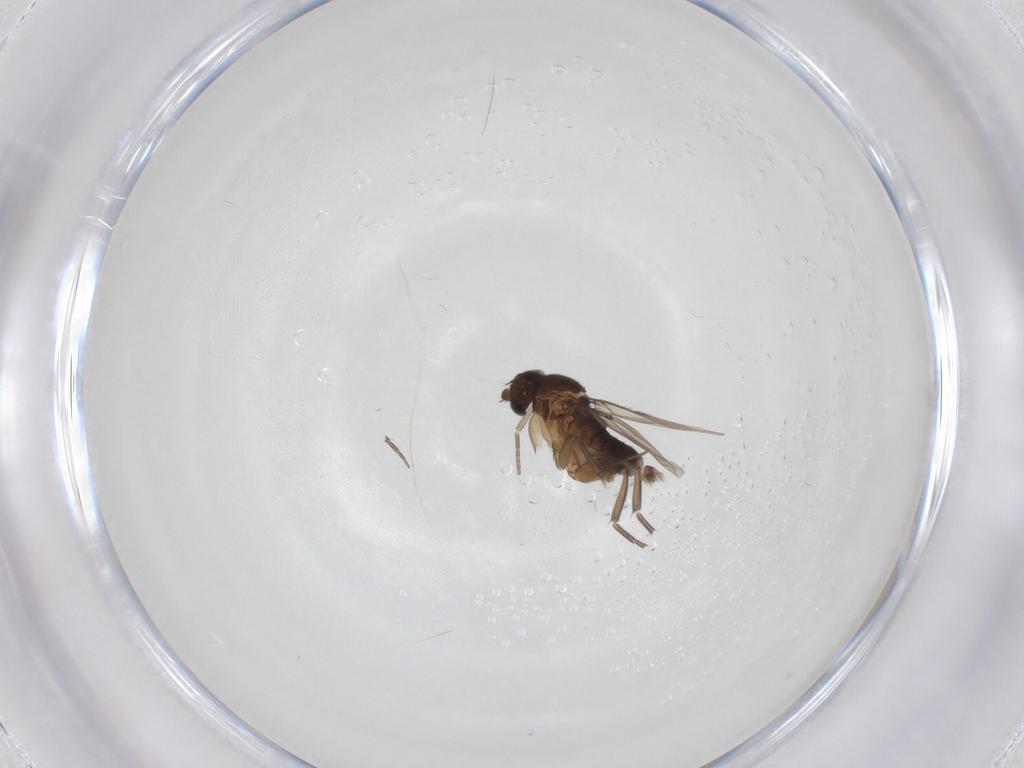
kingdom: Animalia
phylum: Arthropoda
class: Insecta
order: Diptera
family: Phoridae
